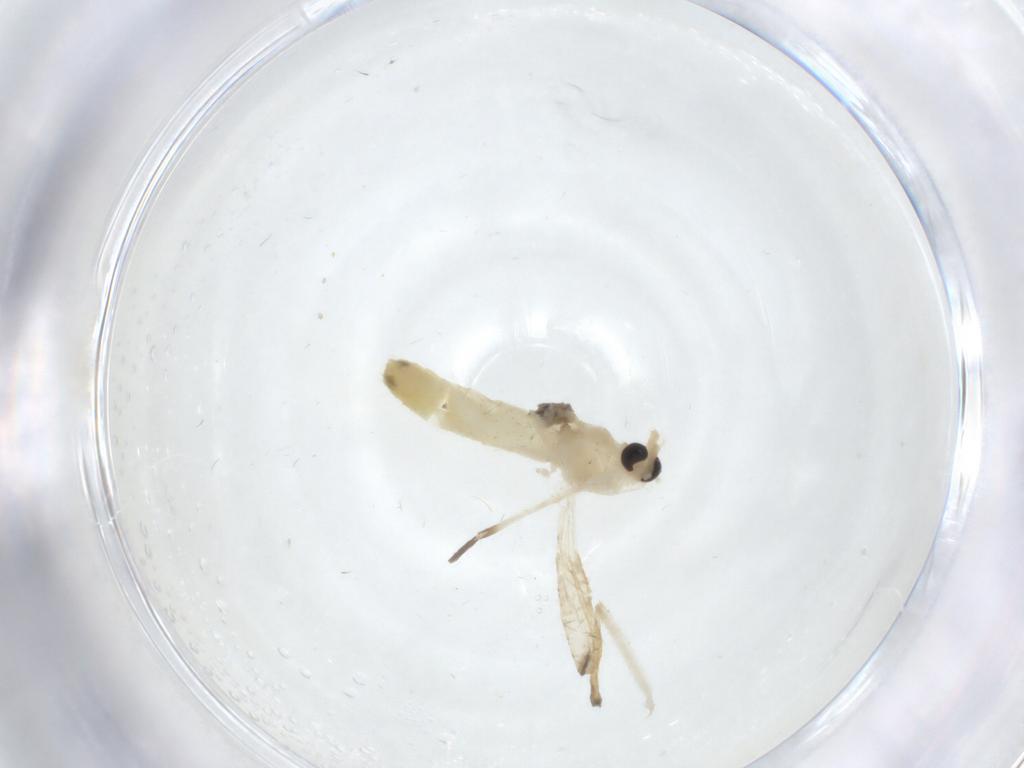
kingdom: Animalia
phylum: Arthropoda
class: Insecta
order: Diptera
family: Chironomidae
